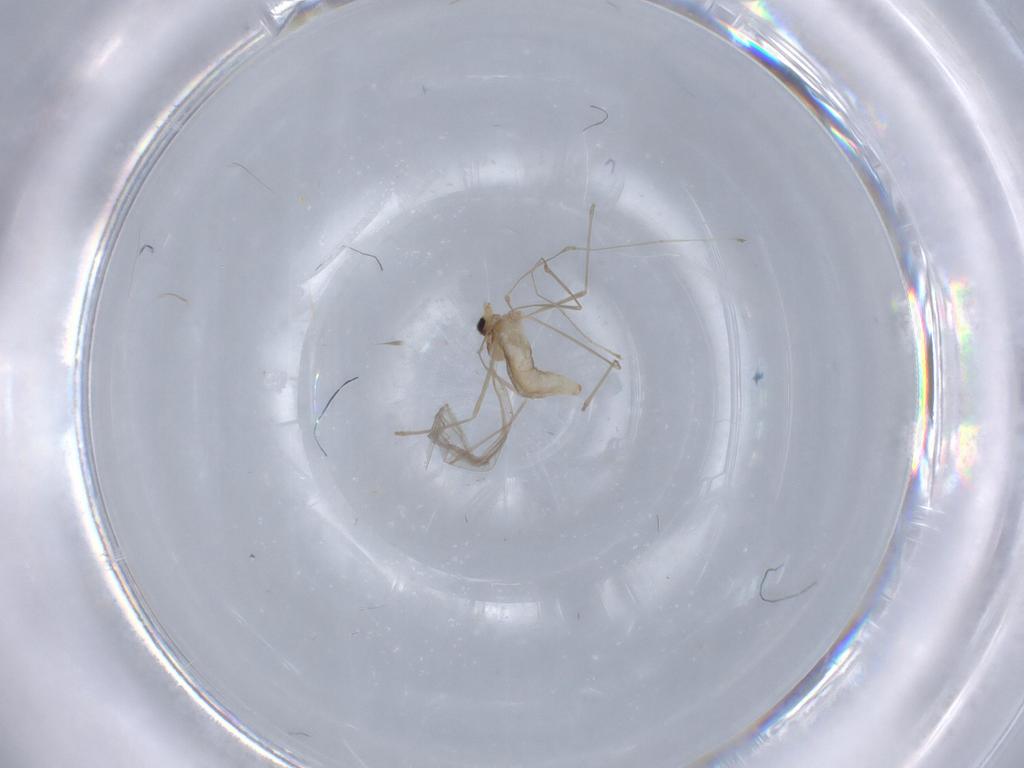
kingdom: Animalia
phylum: Arthropoda
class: Insecta
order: Diptera
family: Cecidomyiidae
